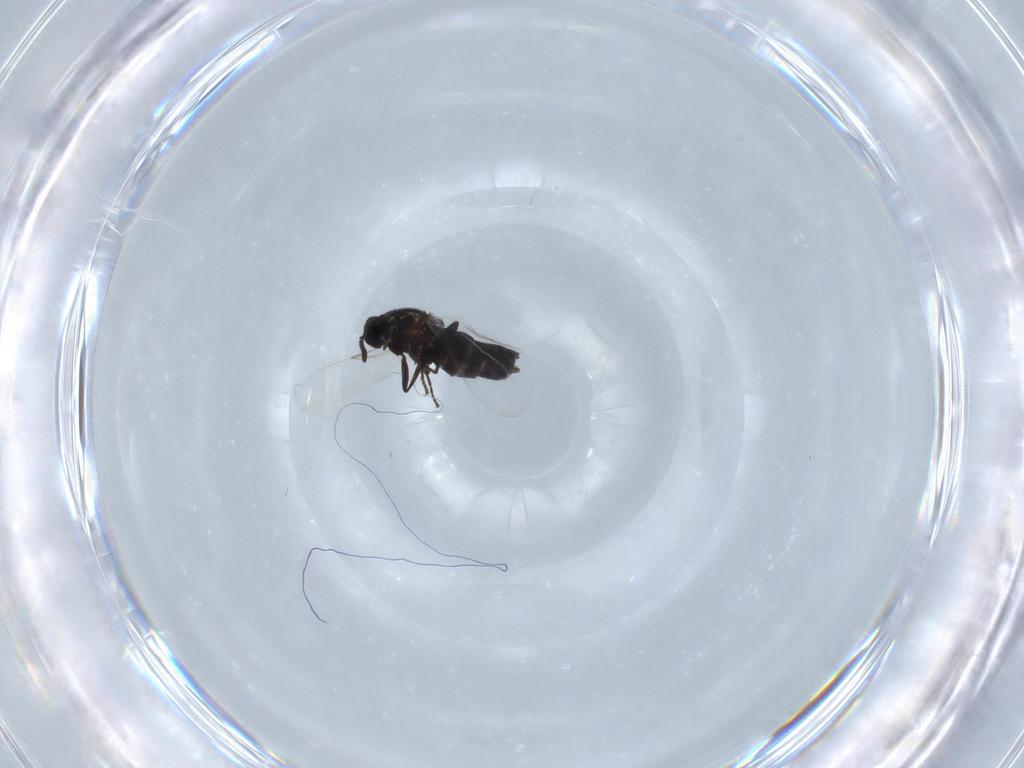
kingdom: Animalia
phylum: Arthropoda
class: Insecta
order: Diptera
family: Scatopsidae
